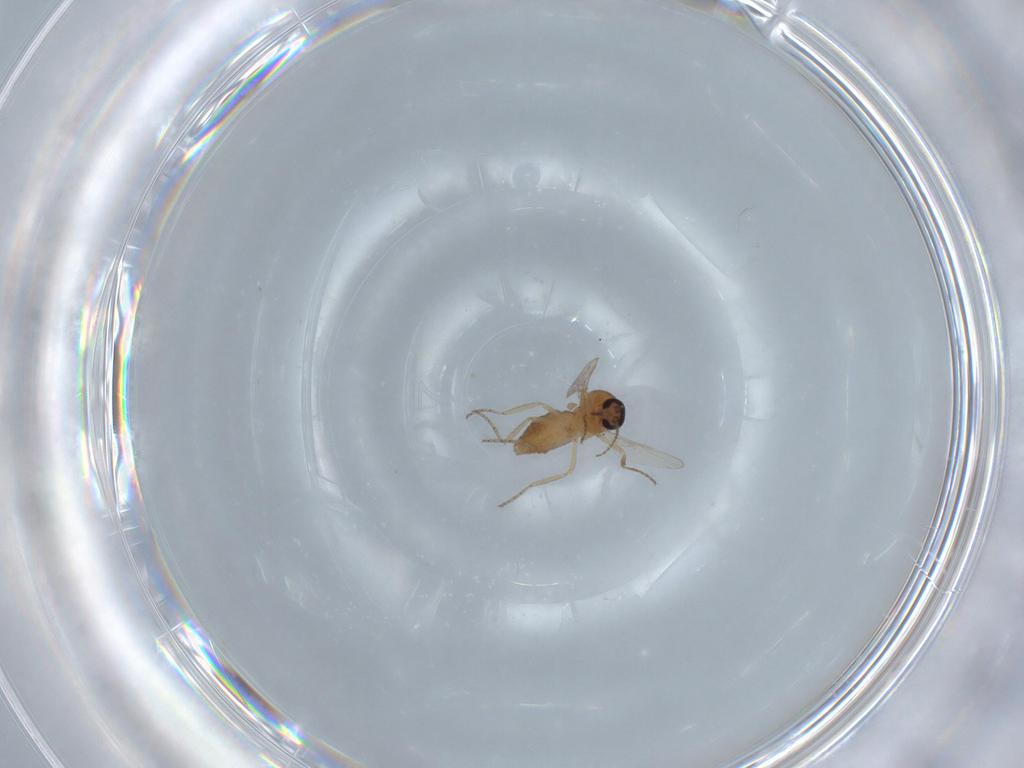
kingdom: Animalia
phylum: Arthropoda
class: Insecta
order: Diptera
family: Ceratopogonidae
